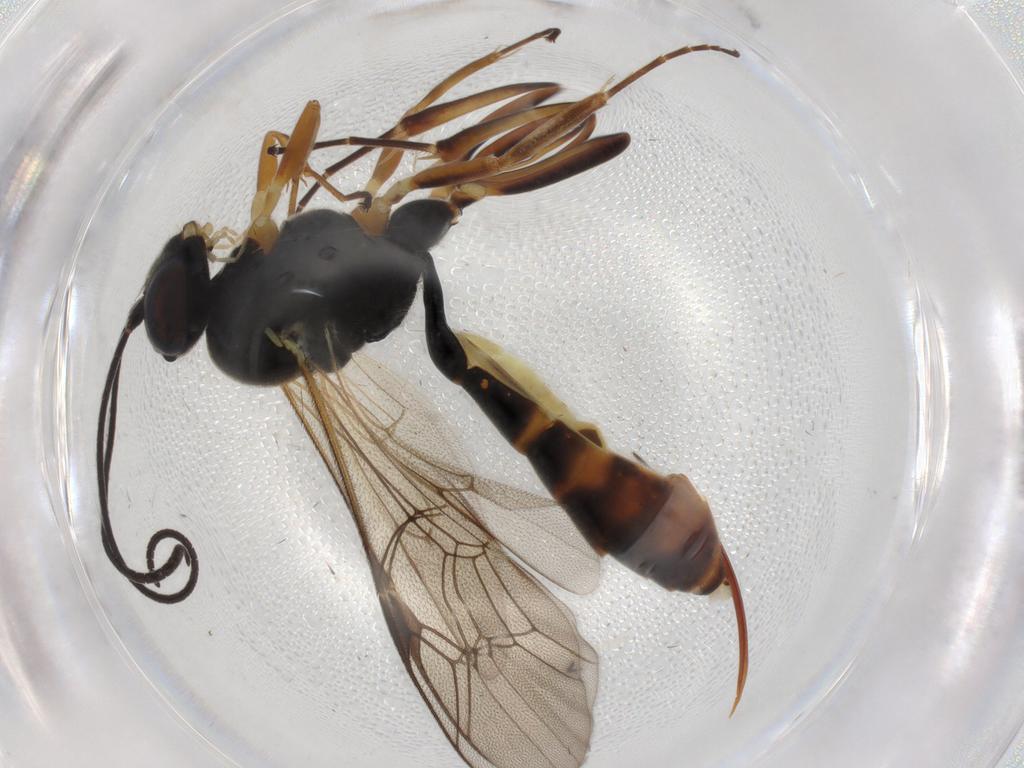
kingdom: Animalia
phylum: Arthropoda
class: Insecta
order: Hymenoptera
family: Ichneumonidae
